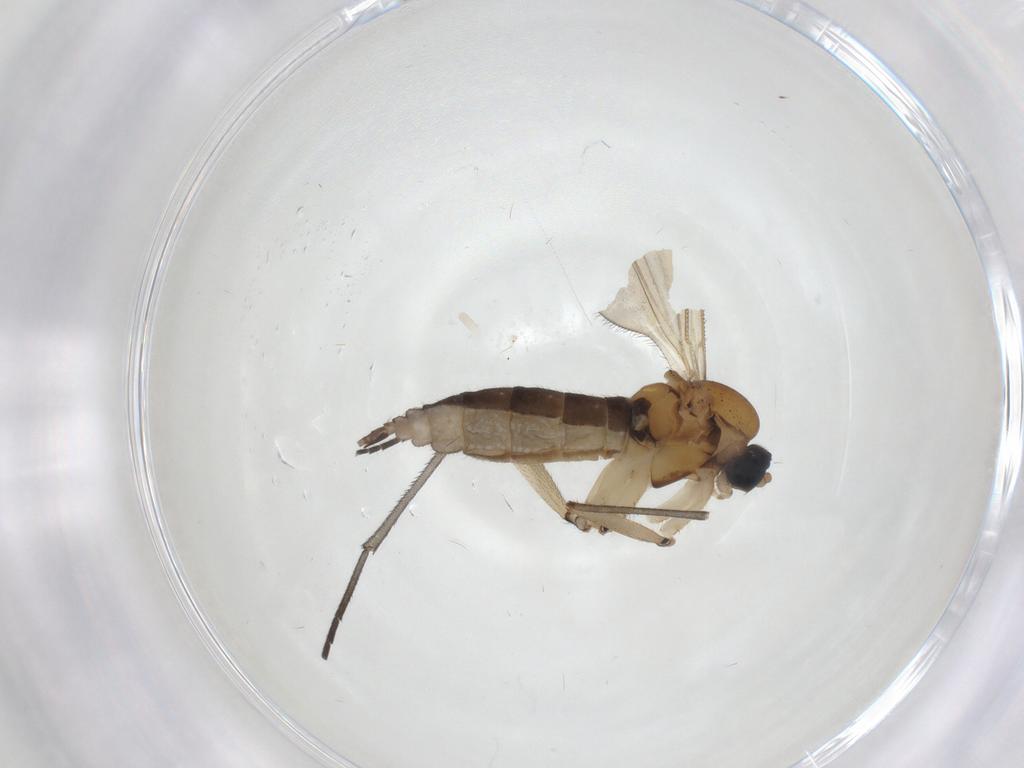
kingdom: Animalia
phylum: Arthropoda
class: Insecta
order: Diptera
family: Sciaridae
